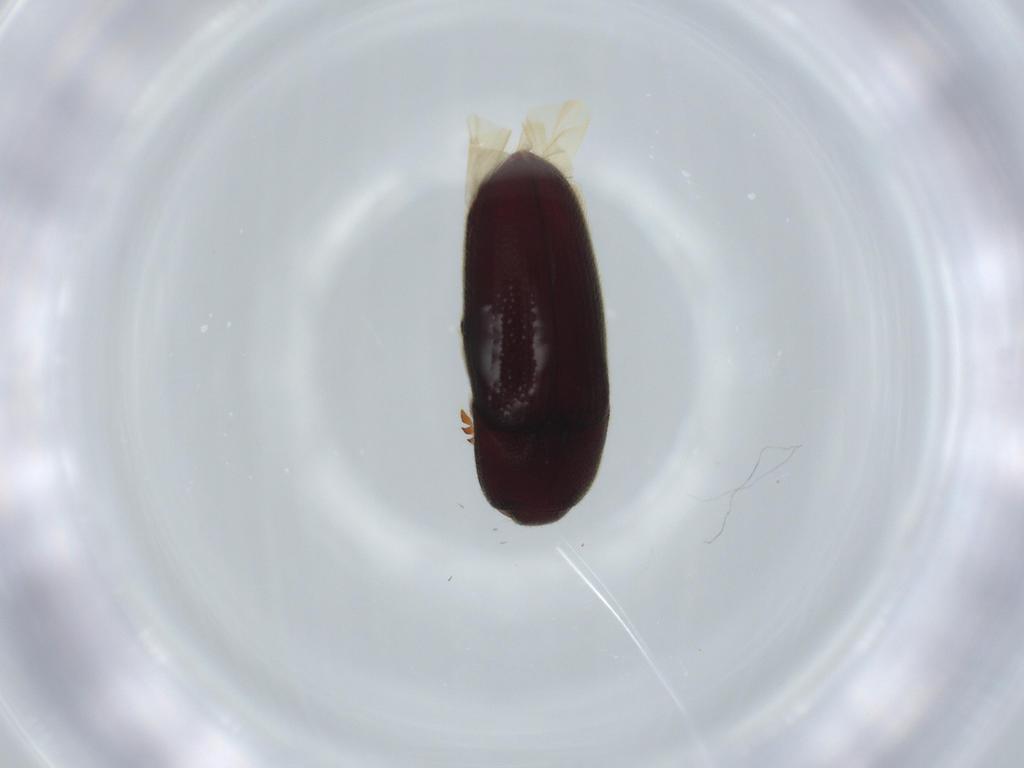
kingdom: Animalia
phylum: Arthropoda
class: Insecta
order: Coleoptera
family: Throscidae
